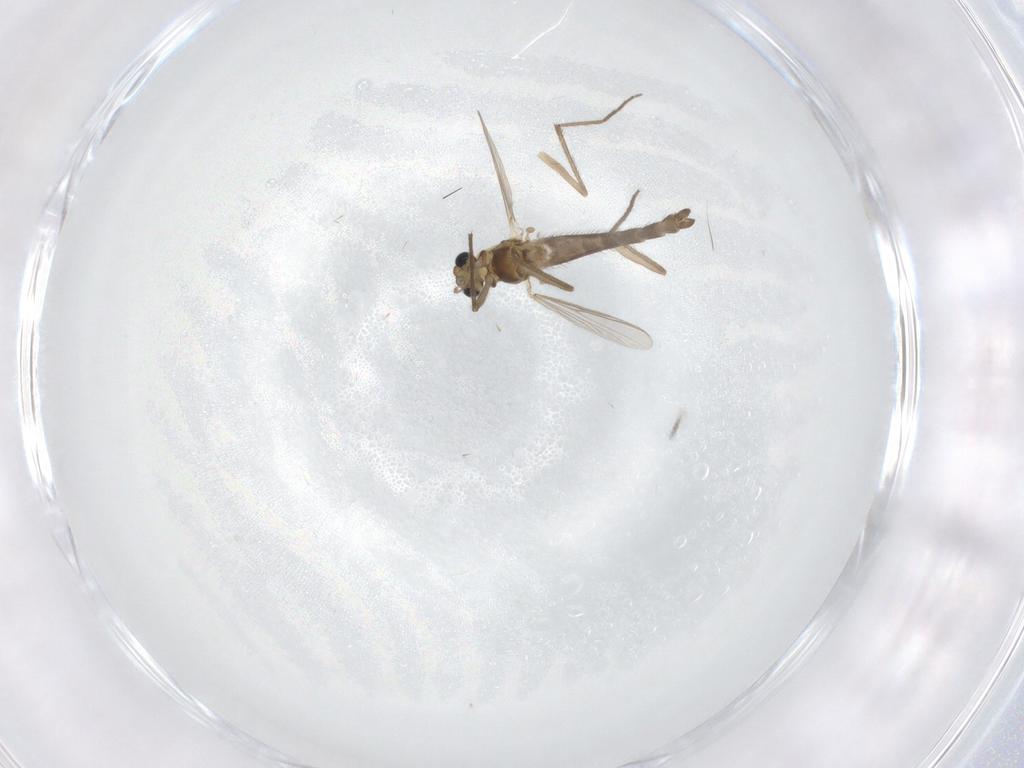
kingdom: Animalia
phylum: Arthropoda
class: Insecta
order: Diptera
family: Chironomidae
